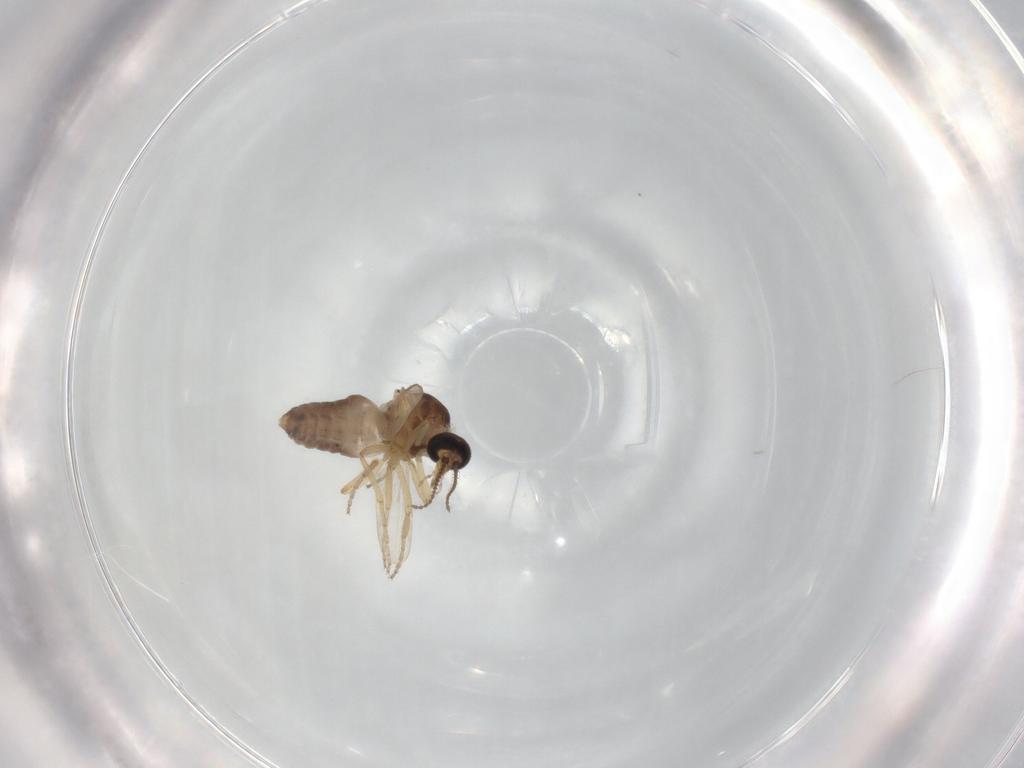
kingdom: Animalia
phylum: Arthropoda
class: Insecta
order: Diptera
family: Ceratopogonidae
